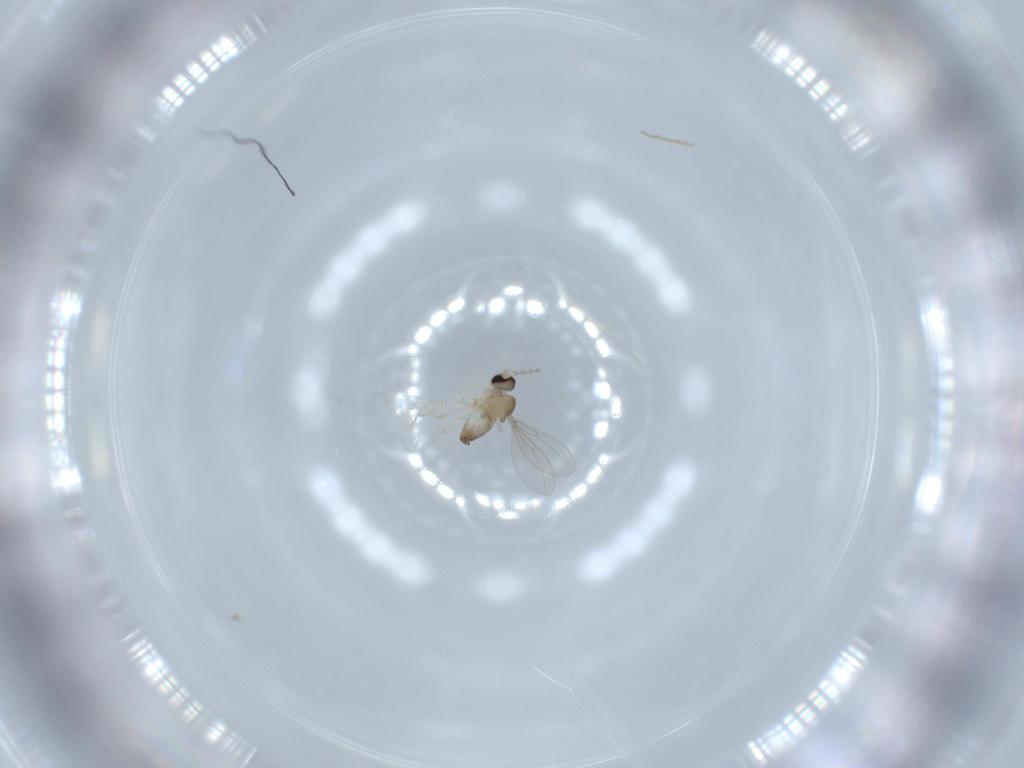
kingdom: Animalia
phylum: Arthropoda
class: Insecta
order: Diptera
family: Cecidomyiidae
